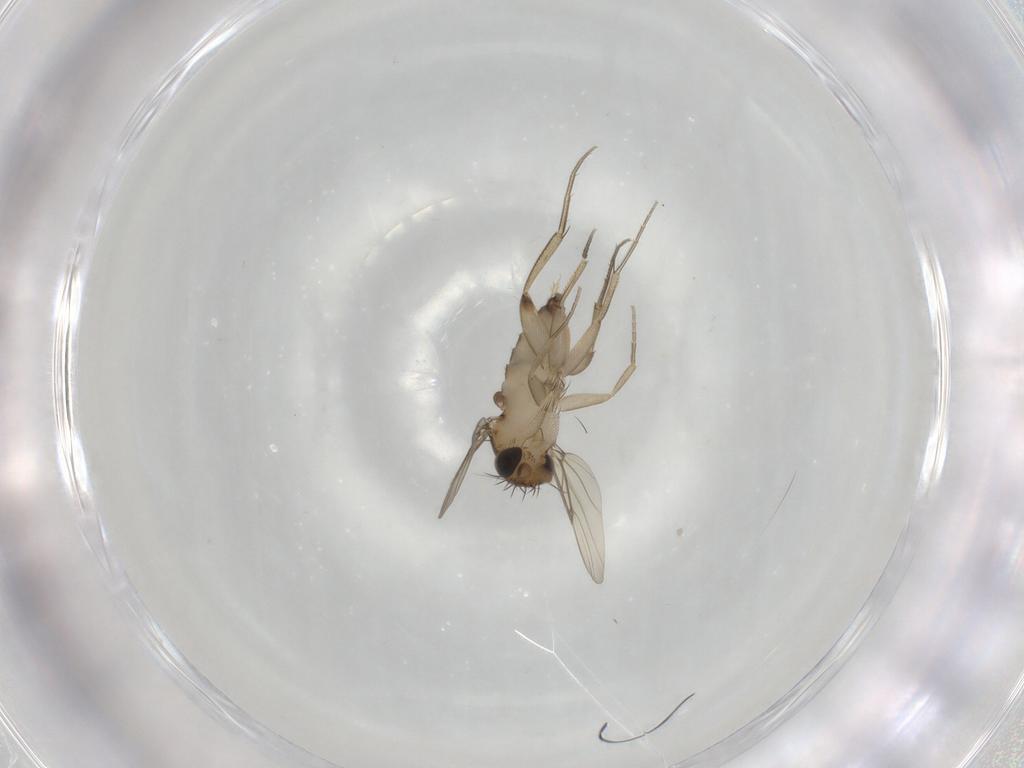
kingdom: Animalia
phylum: Arthropoda
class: Insecta
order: Diptera
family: Phoridae
